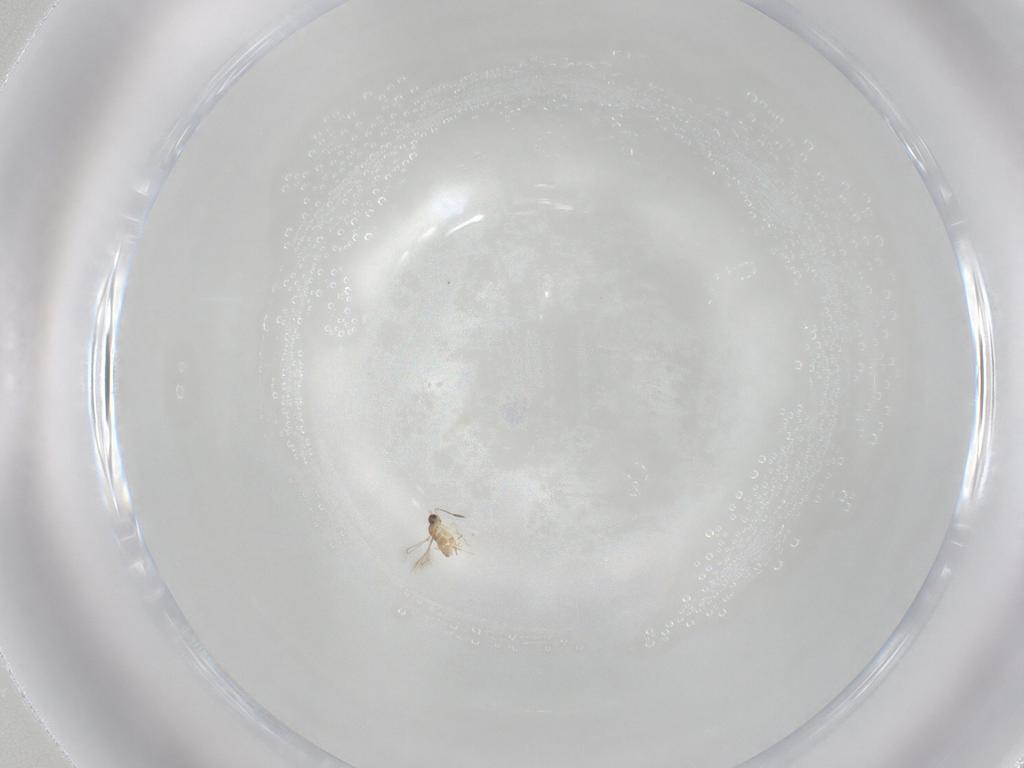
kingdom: Animalia
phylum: Arthropoda
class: Insecta
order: Hymenoptera
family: Mymaridae
